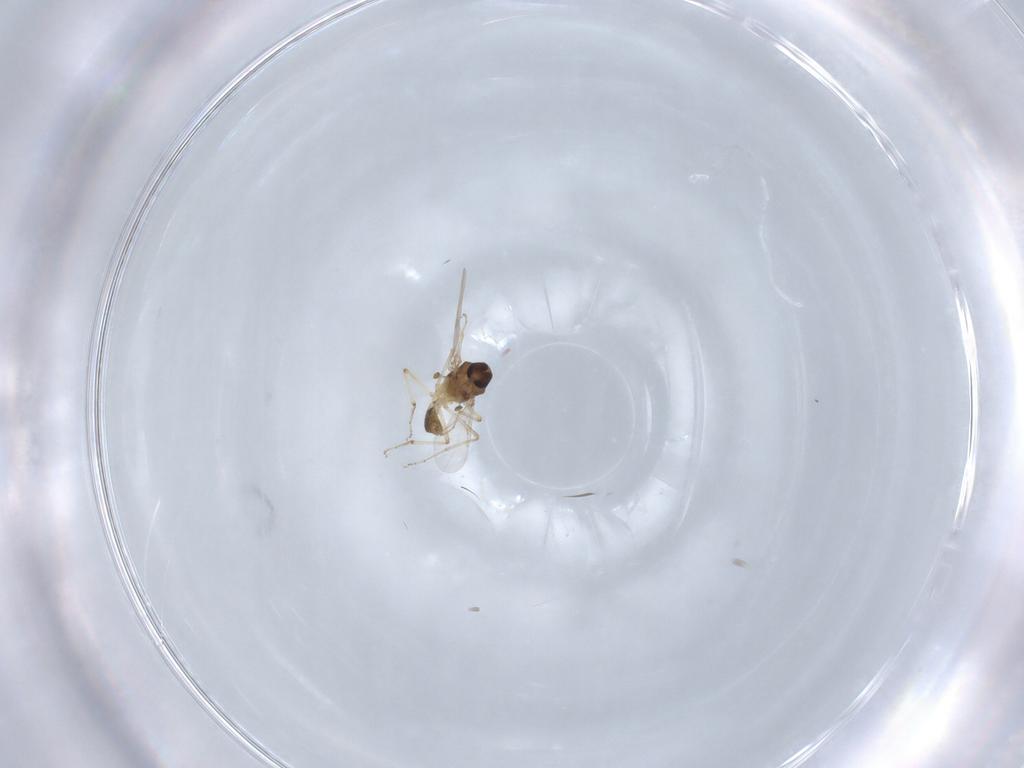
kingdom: Animalia
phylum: Arthropoda
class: Insecta
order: Diptera
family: Ceratopogonidae
